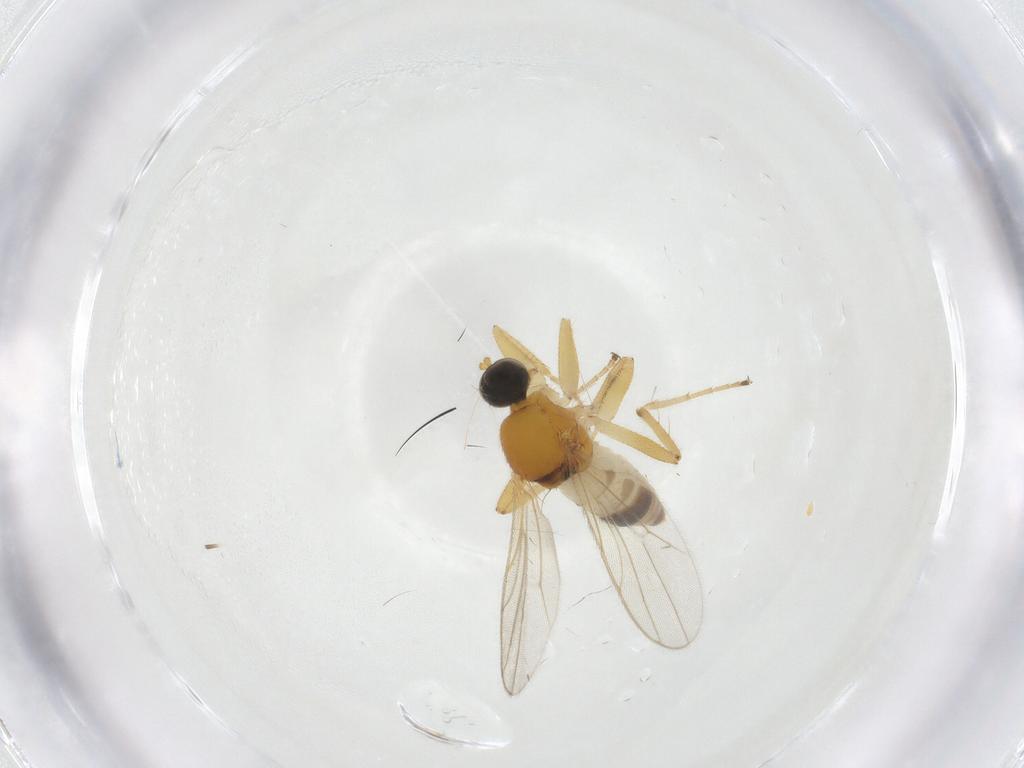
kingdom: Animalia
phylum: Arthropoda
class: Insecta
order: Diptera
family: Hybotidae
